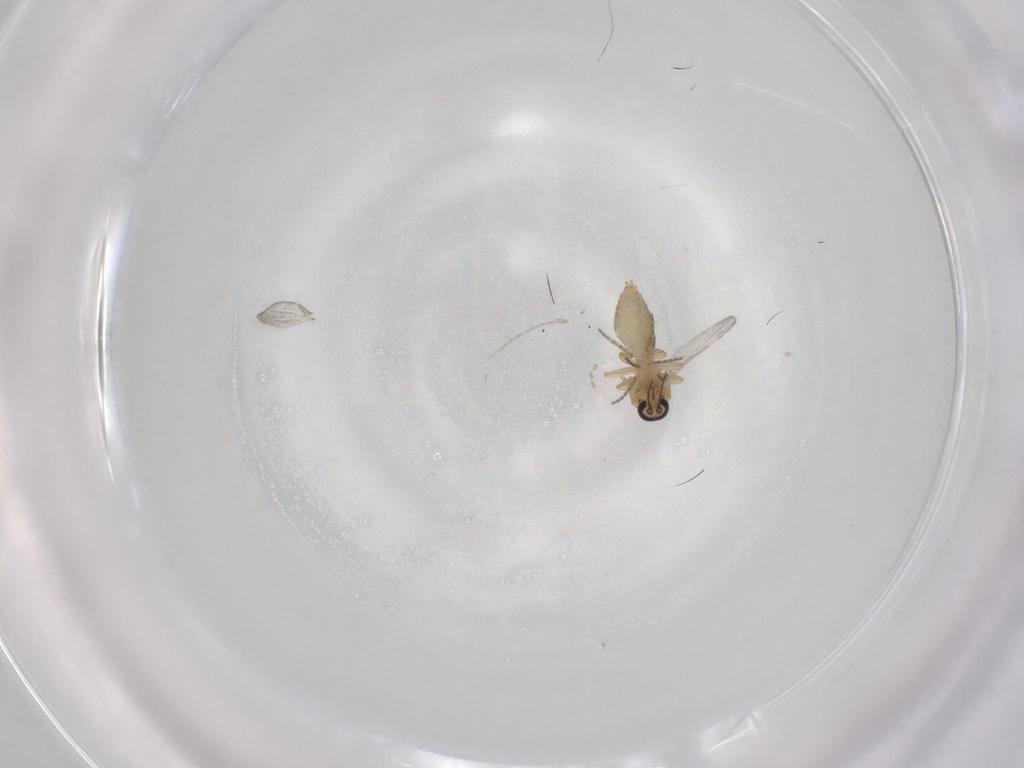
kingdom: Animalia
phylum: Arthropoda
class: Insecta
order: Diptera
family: Ceratopogonidae
